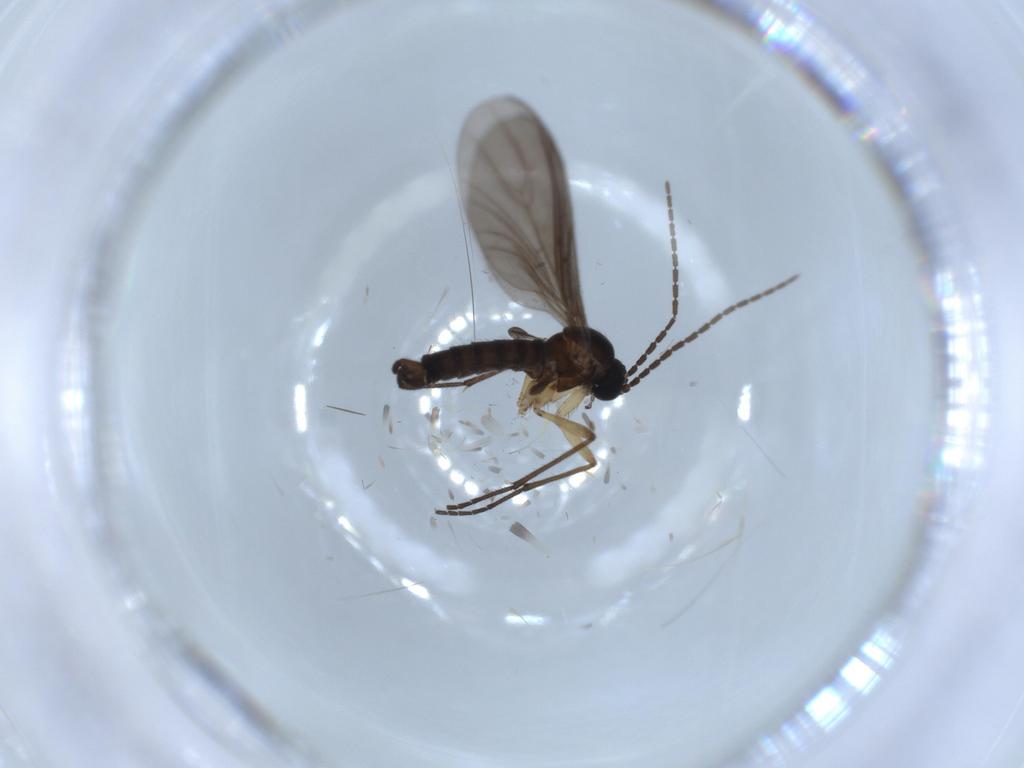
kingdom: Animalia
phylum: Arthropoda
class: Insecta
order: Diptera
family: Sciaridae
